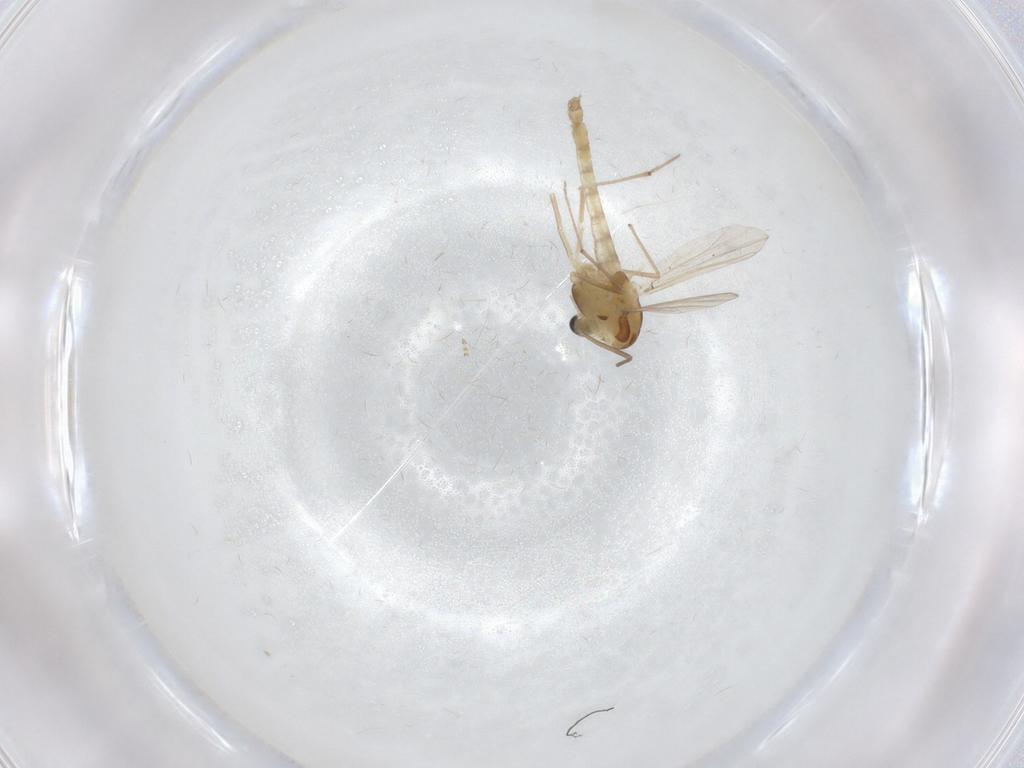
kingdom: Animalia
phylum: Arthropoda
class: Insecta
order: Diptera
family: Chironomidae
